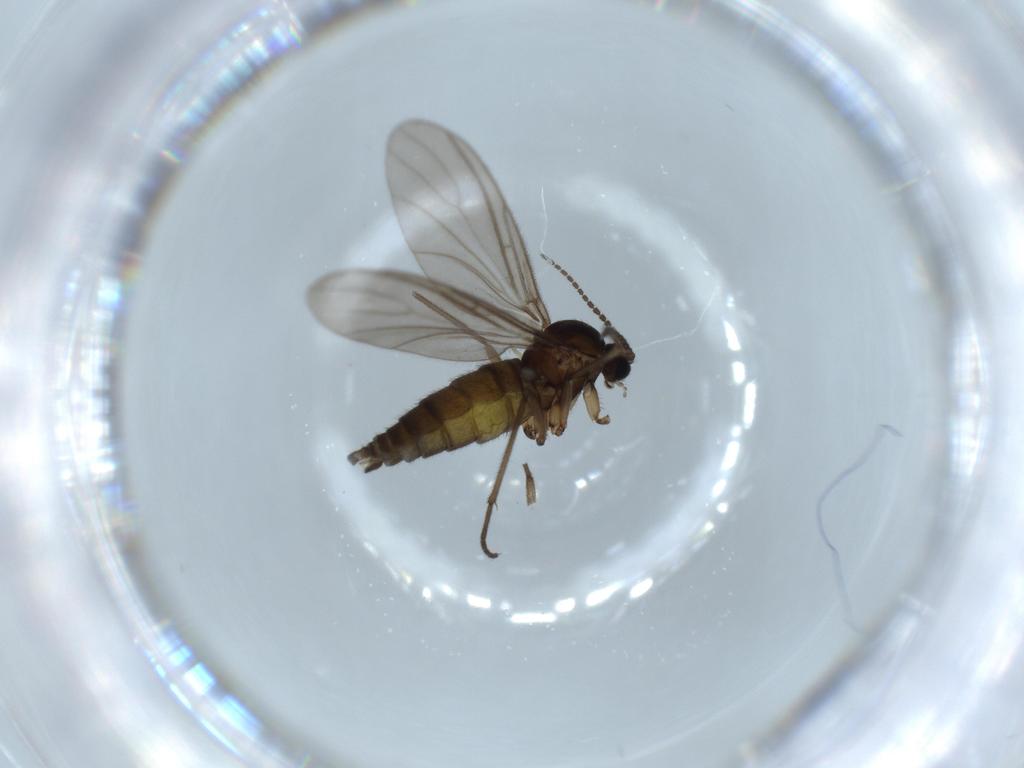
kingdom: Animalia
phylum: Arthropoda
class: Insecta
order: Diptera
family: Sciaridae
